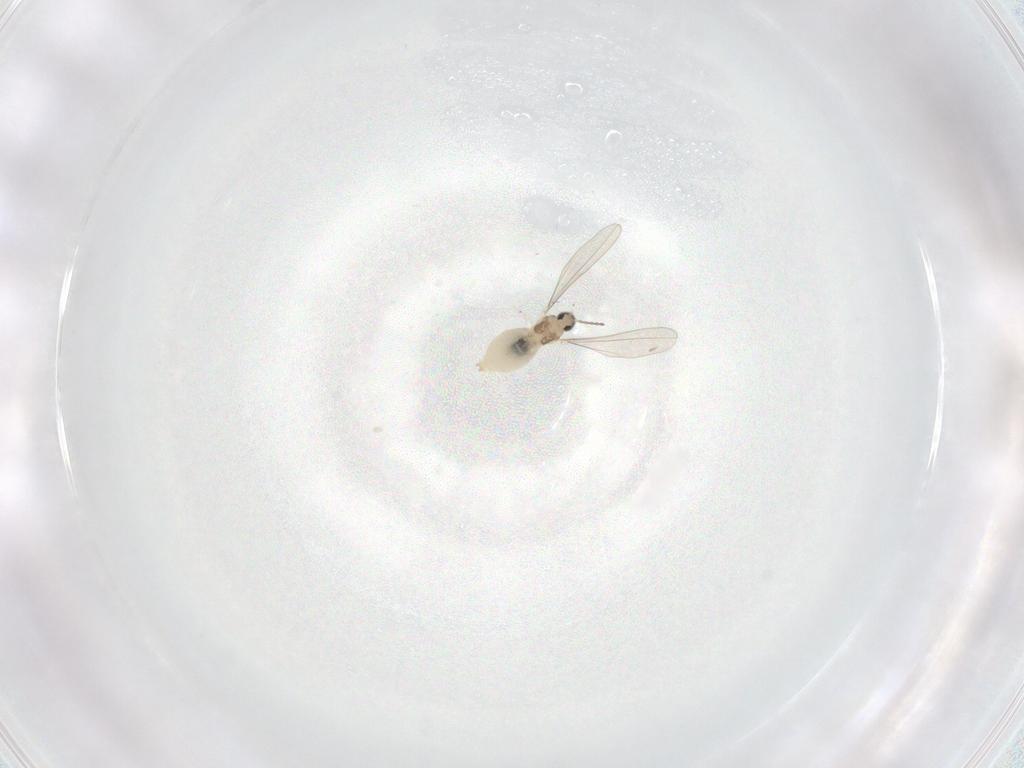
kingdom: Animalia
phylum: Arthropoda
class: Insecta
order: Diptera
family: Cecidomyiidae
